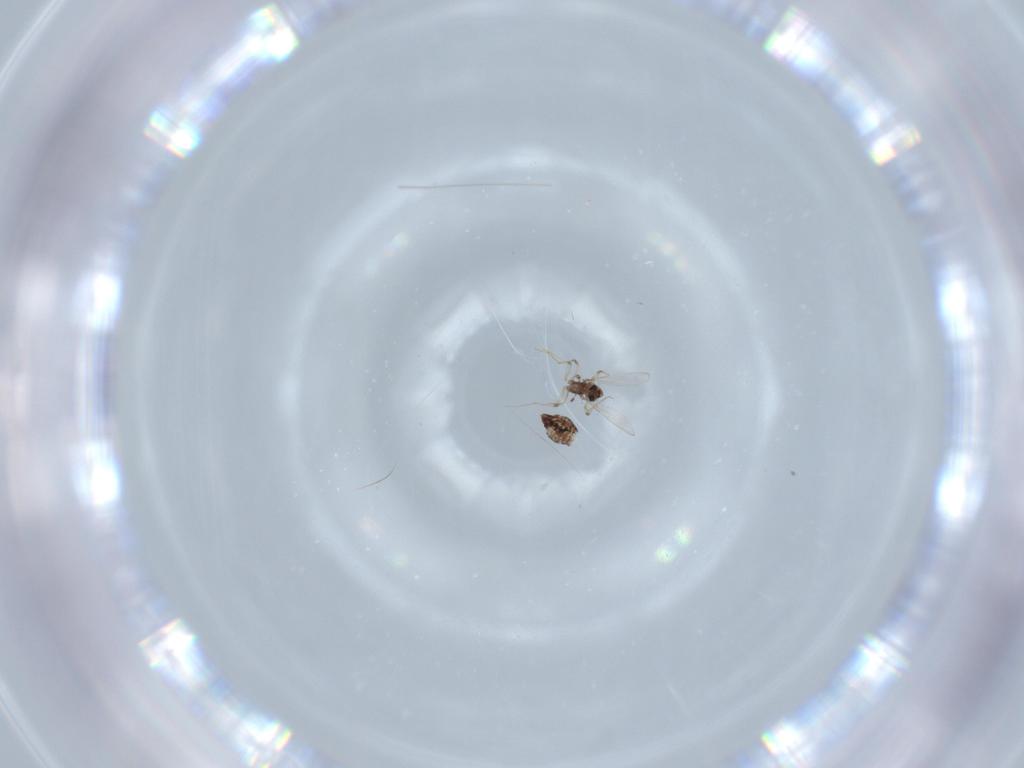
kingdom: Animalia
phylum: Arthropoda
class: Insecta
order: Diptera
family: Chironomidae
